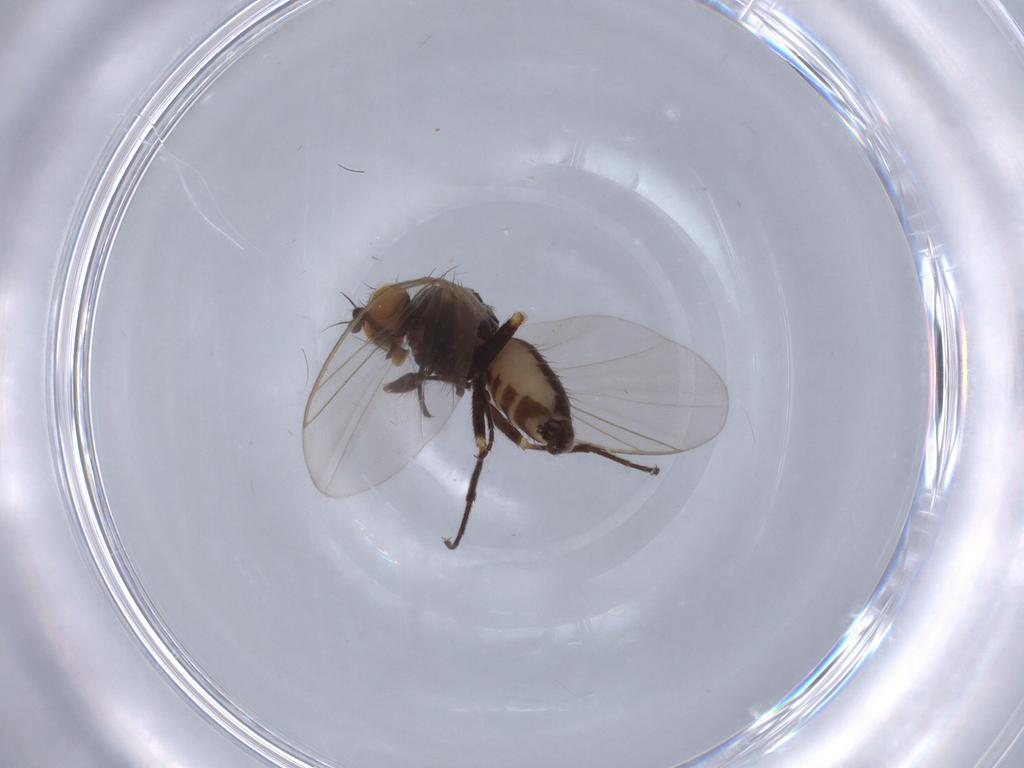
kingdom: Animalia
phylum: Arthropoda
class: Insecta
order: Diptera
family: Muscidae
